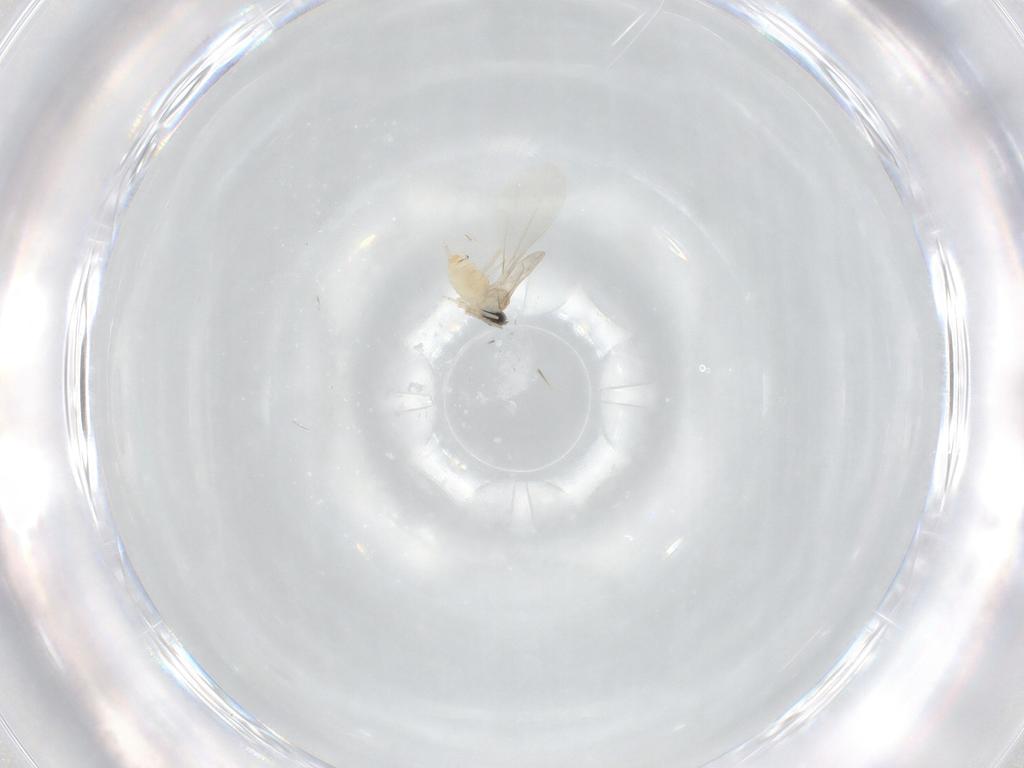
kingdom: Animalia
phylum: Arthropoda
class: Insecta
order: Diptera
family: Cecidomyiidae
